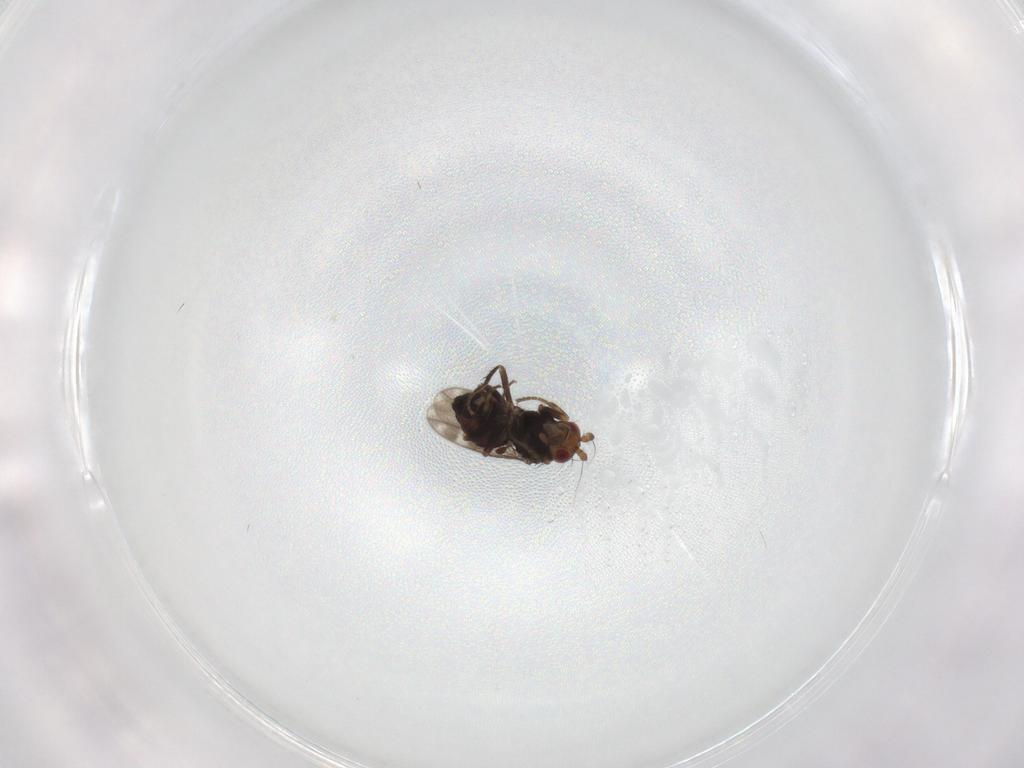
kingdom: Animalia
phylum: Arthropoda
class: Insecta
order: Diptera
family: Sphaeroceridae
